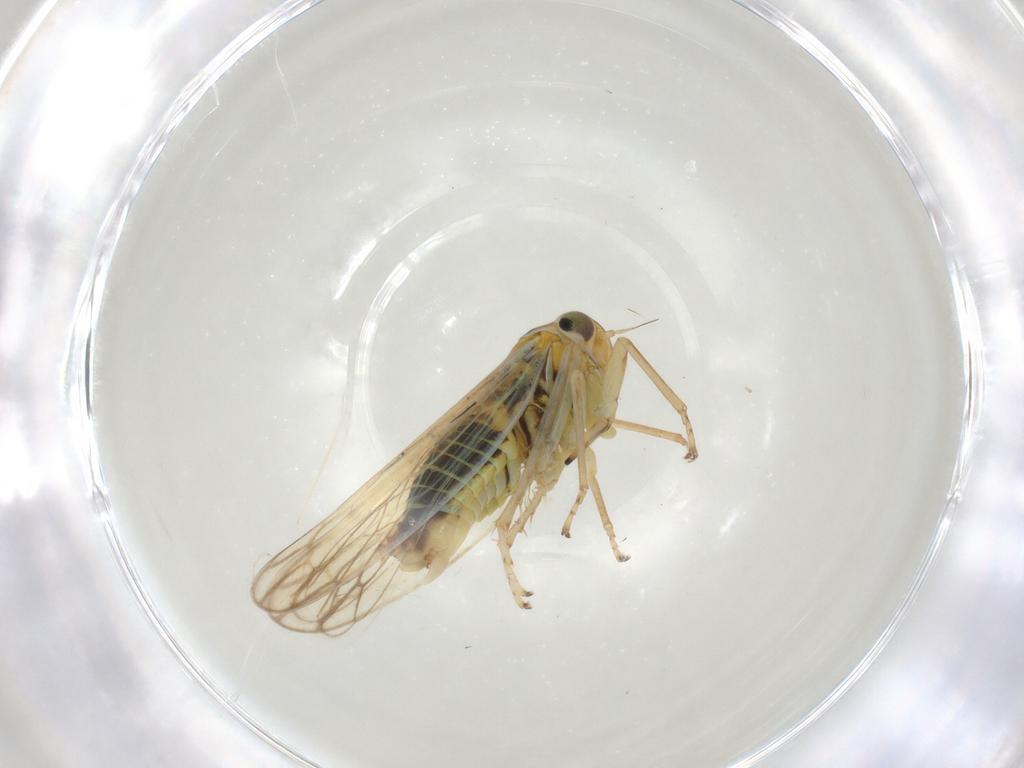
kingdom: Animalia
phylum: Arthropoda
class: Insecta
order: Hemiptera
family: Cicadellidae
